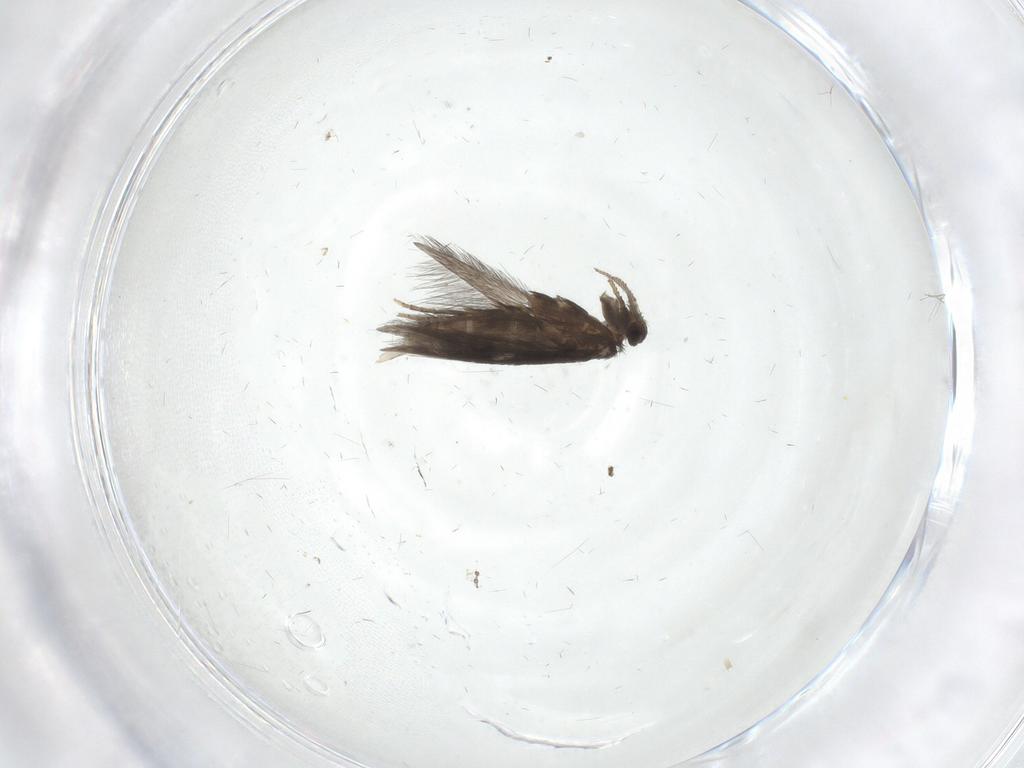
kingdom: Animalia
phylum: Arthropoda
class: Insecta
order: Trichoptera
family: Hydroptilidae
